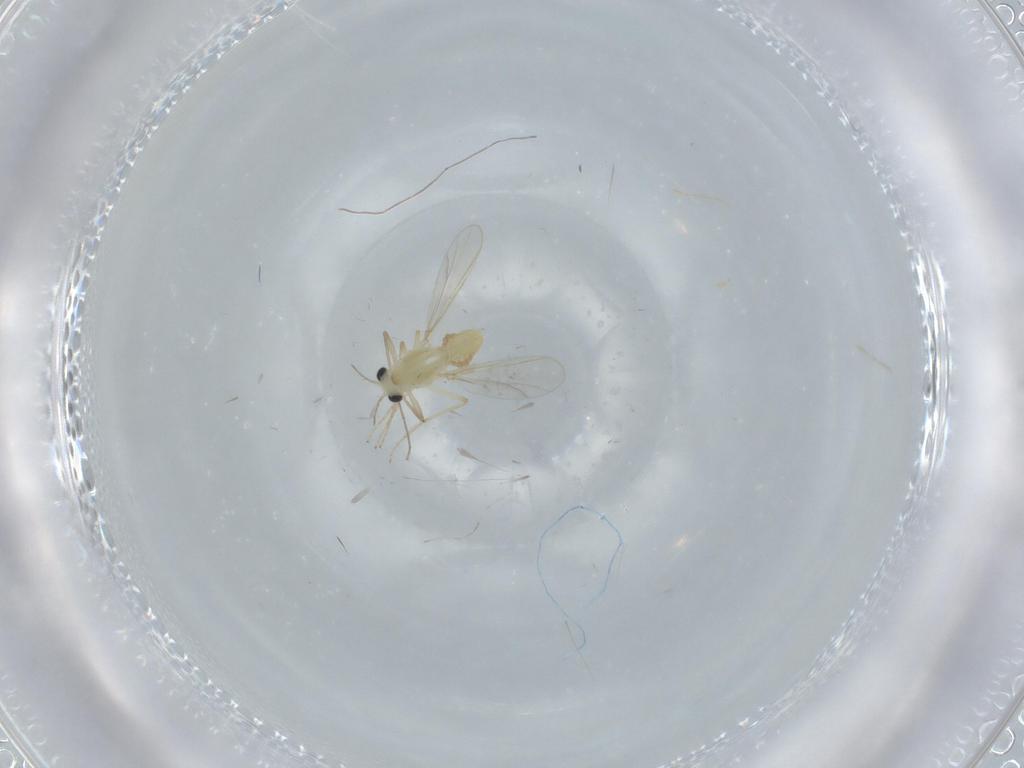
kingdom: Animalia
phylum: Arthropoda
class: Insecta
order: Diptera
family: Chironomidae
